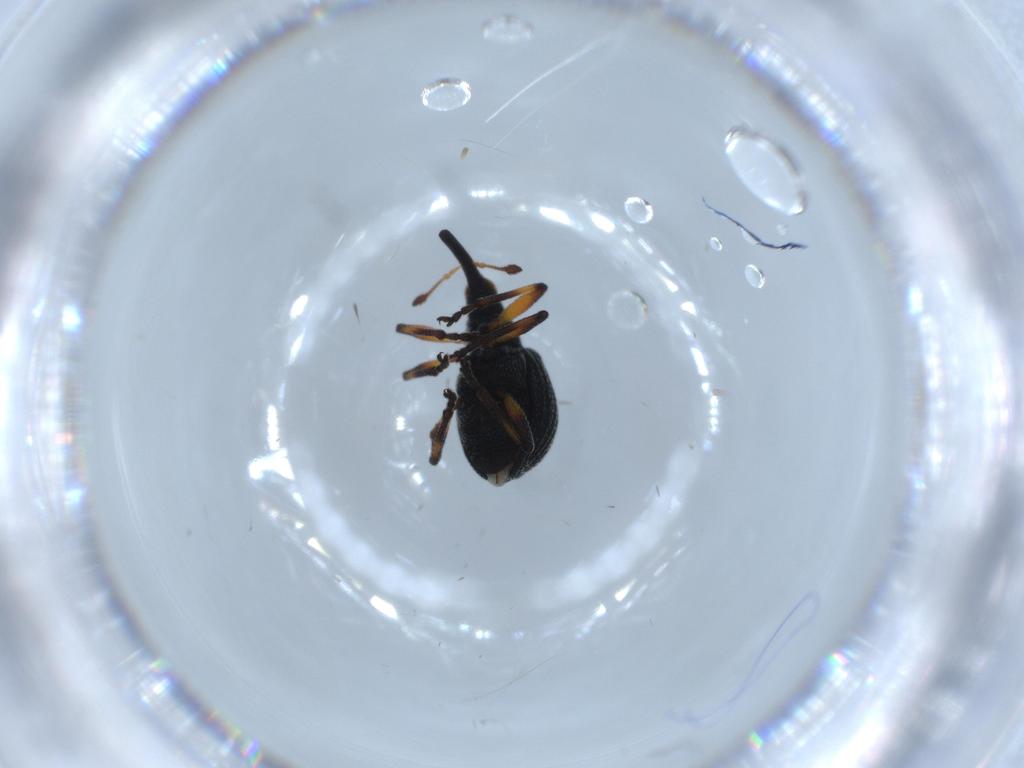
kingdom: Animalia
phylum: Arthropoda
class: Insecta
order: Coleoptera
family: Brentidae
